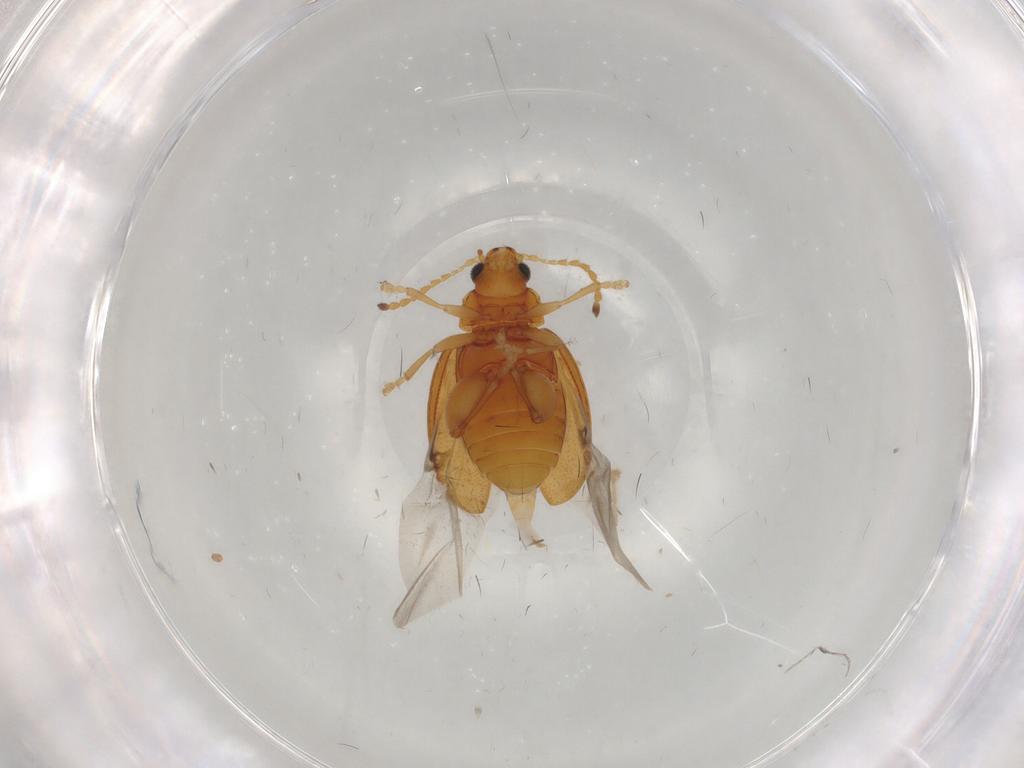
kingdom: Animalia
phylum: Arthropoda
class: Insecta
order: Coleoptera
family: Chrysomelidae
